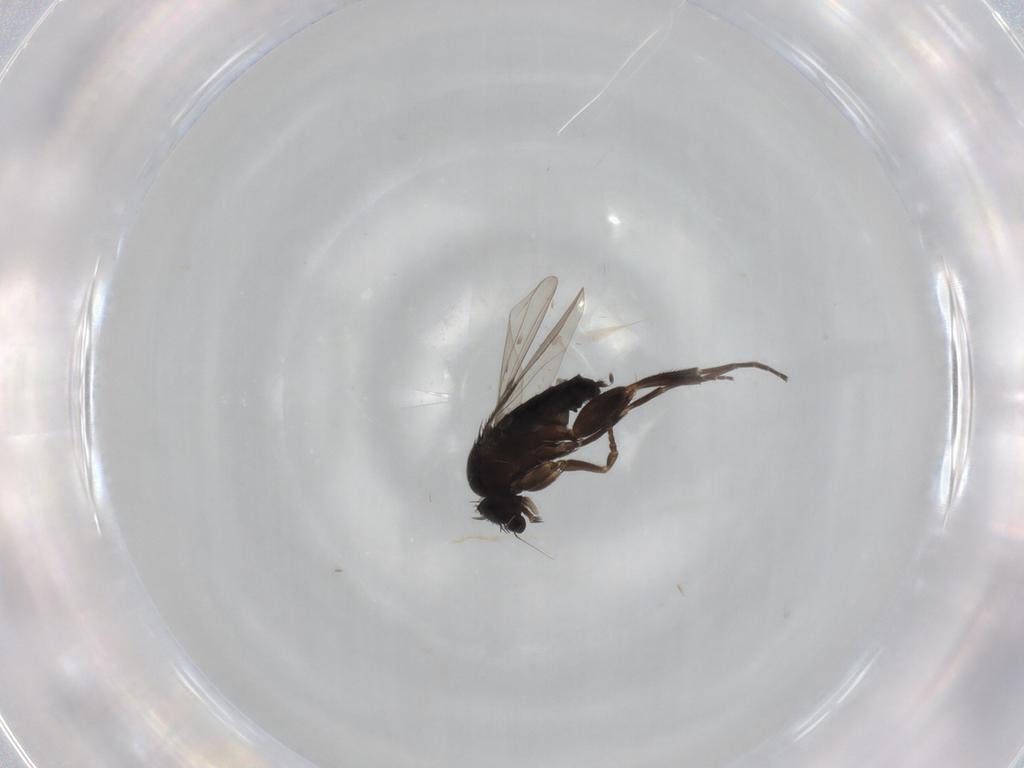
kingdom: Animalia
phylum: Arthropoda
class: Insecta
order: Diptera
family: Phoridae
